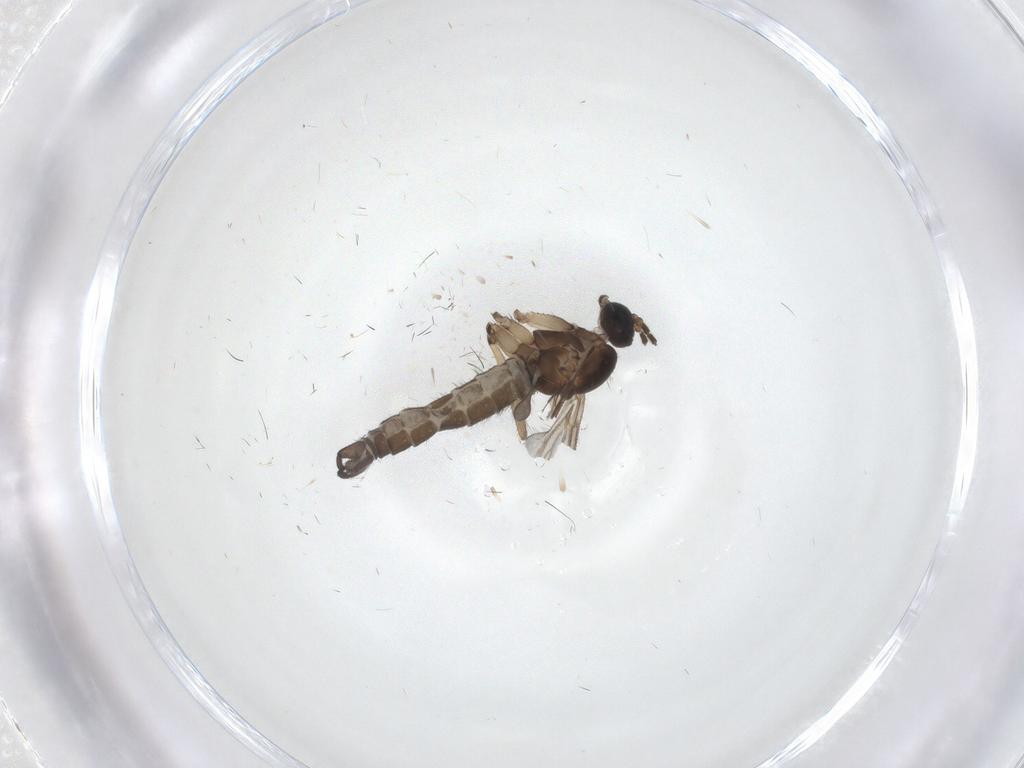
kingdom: Animalia
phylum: Arthropoda
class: Insecta
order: Diptera
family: Sciaridae
